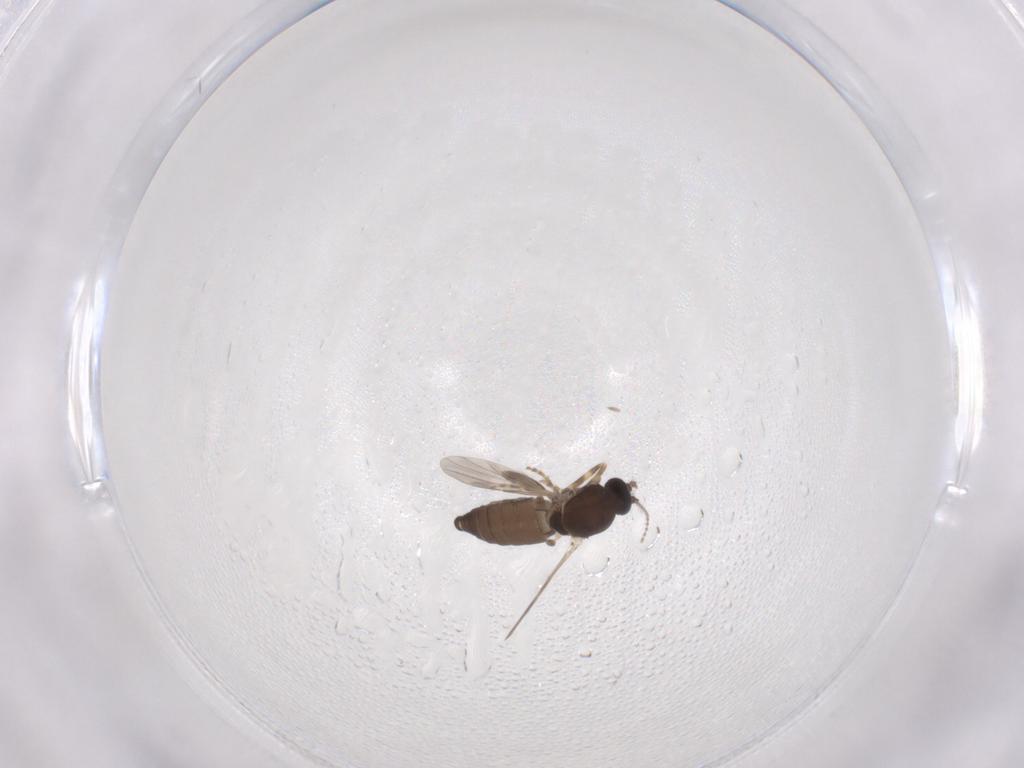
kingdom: Animalia
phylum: Arthropoda
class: Insecta
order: Diptera
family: Ceratopogonidae
